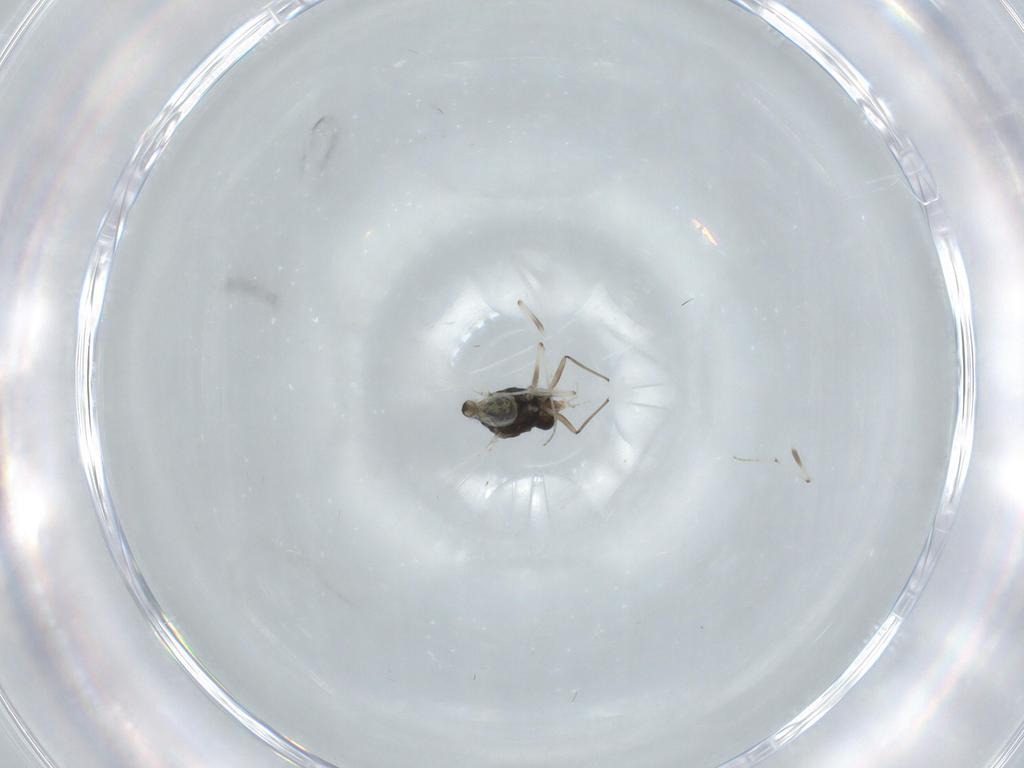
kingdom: Animalia
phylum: Arthropoda
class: Insecta
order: Diptera
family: Chironomidae
